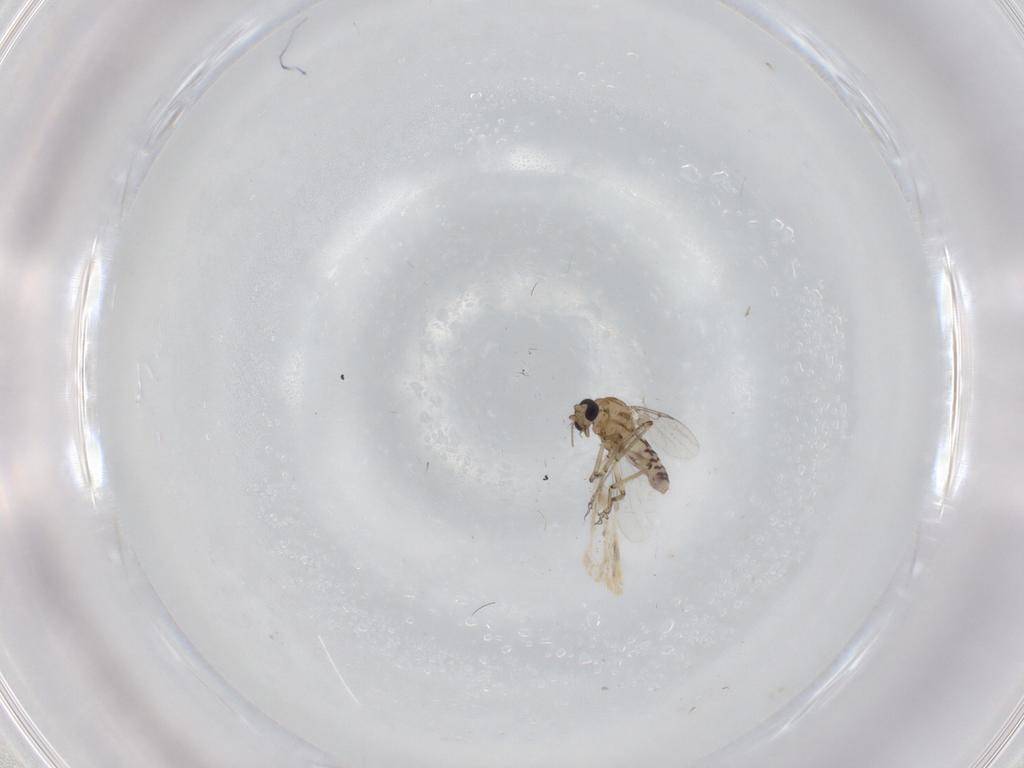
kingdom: Animalia
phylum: Arthropoda
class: Insecta
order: Diptera
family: Ceratopogonidae
